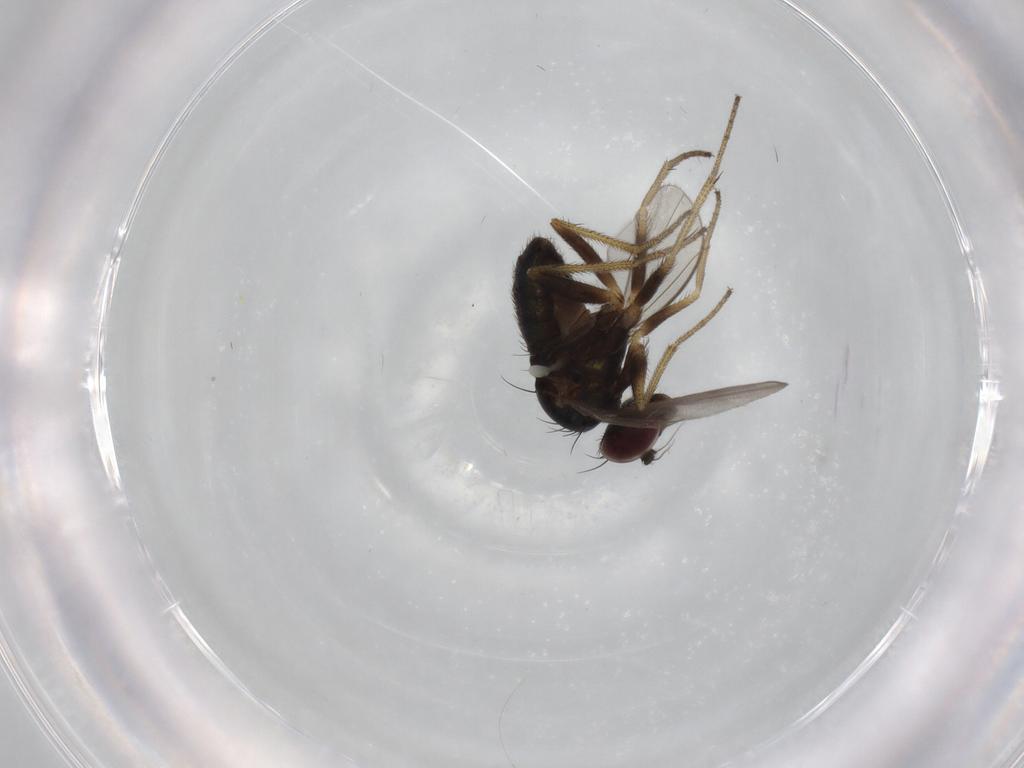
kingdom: Animalia
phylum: Arthropoda
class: Insecta
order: Diptera
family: Dolichopodidae
